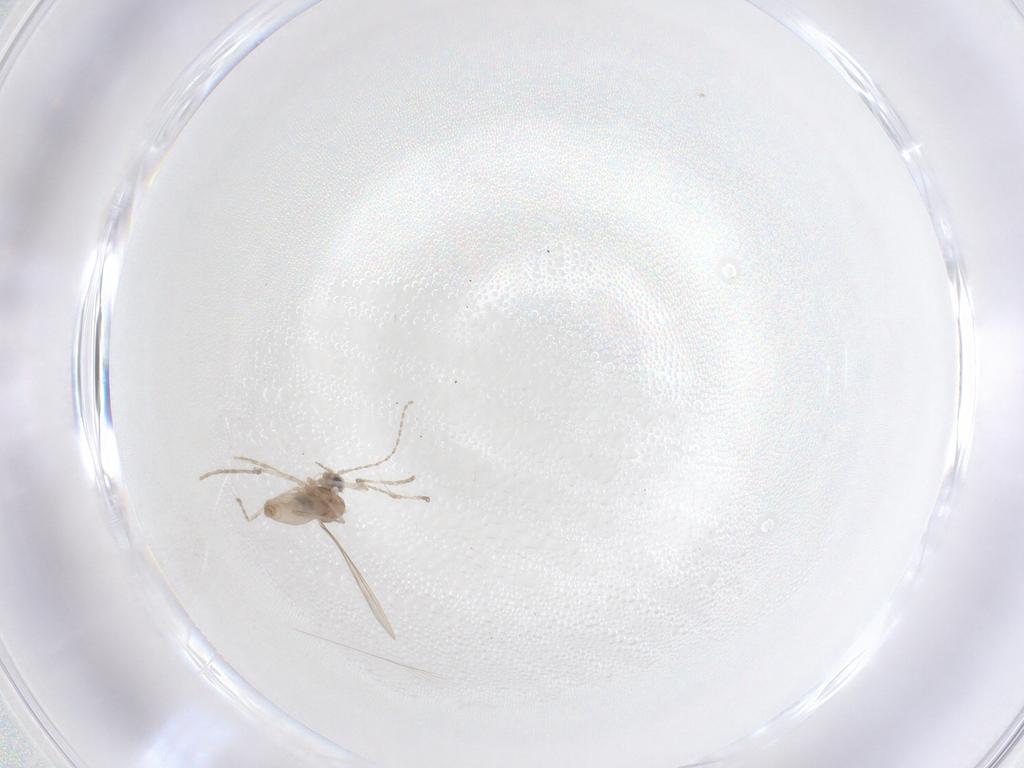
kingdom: Animalia
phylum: Arthropoda
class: Insecta
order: Diptera
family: Cecidomyiidae
